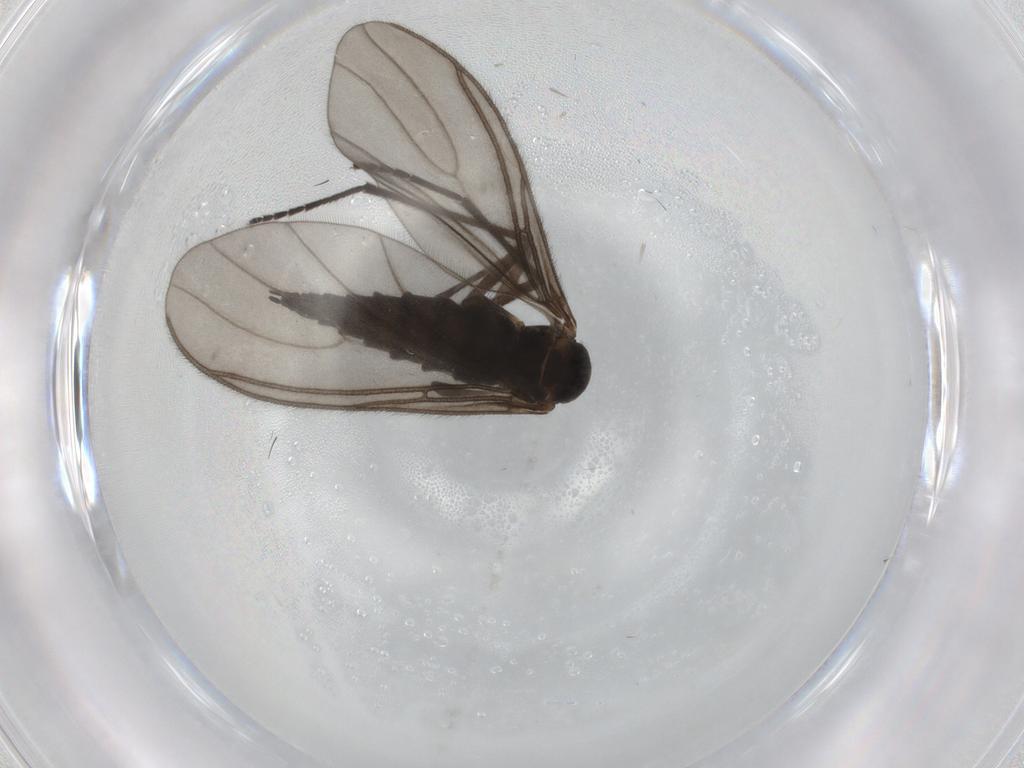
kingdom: Animalia
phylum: Arthropoda
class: Insecta
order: Diptera
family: Sciaridae
